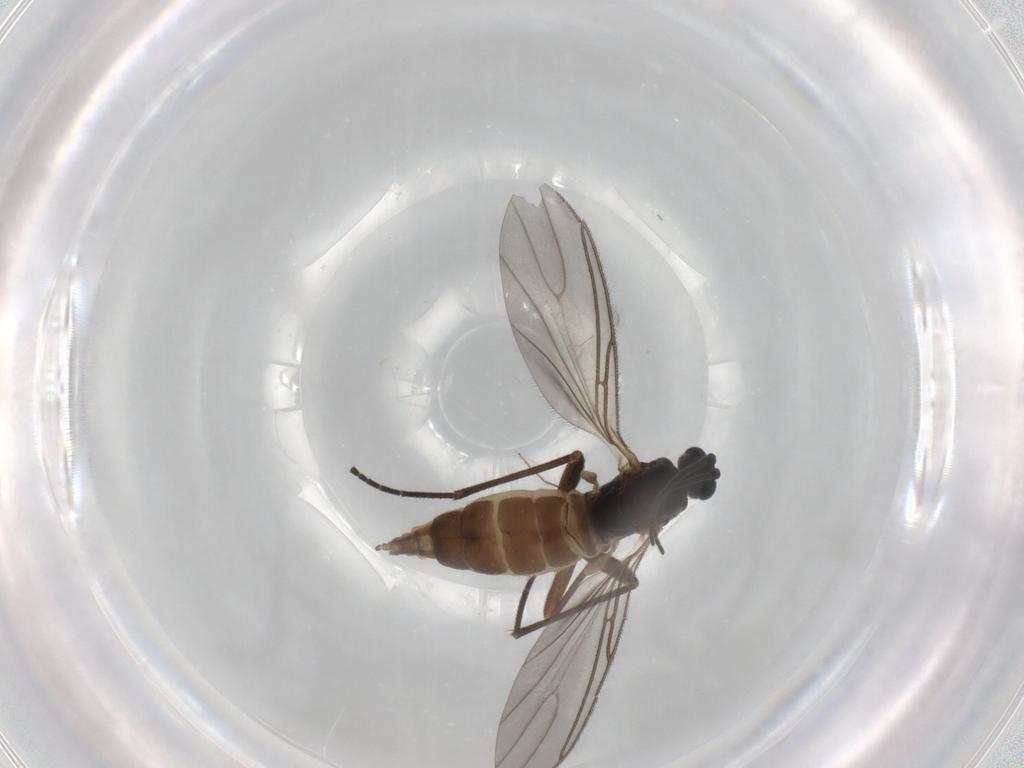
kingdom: Animalia
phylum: Arthropoda
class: Insecta
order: Diptera
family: Sciaridae
